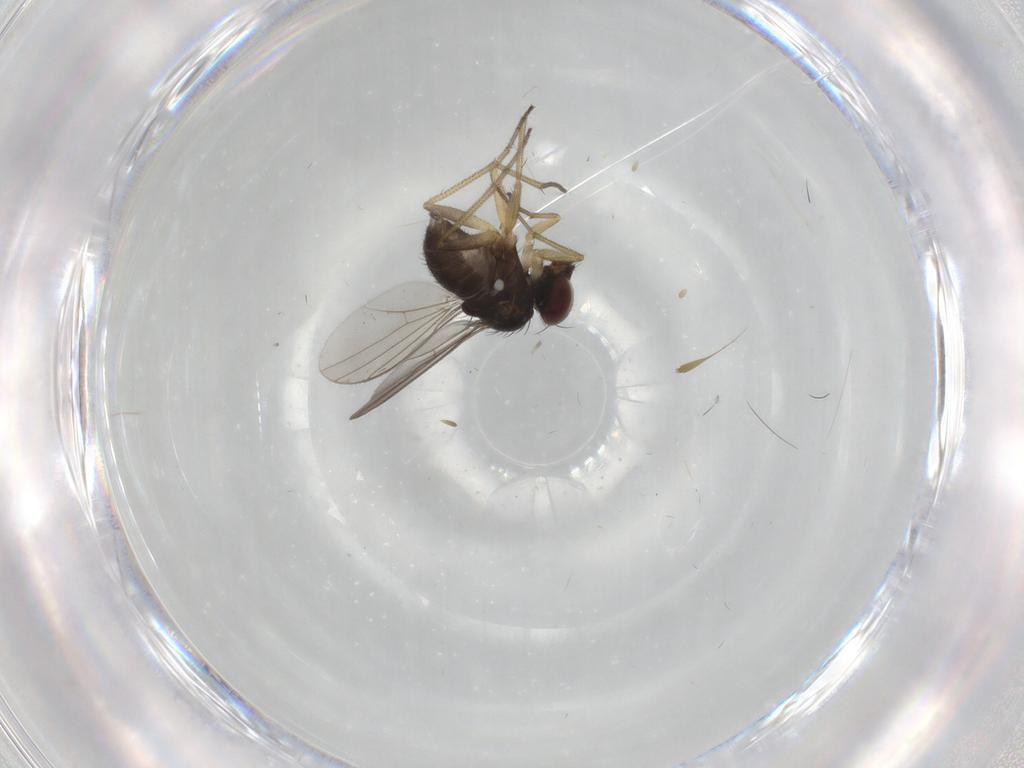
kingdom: Animalia
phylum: Arthropoda
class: Insecta
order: Diptera
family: Dolichopodidae
